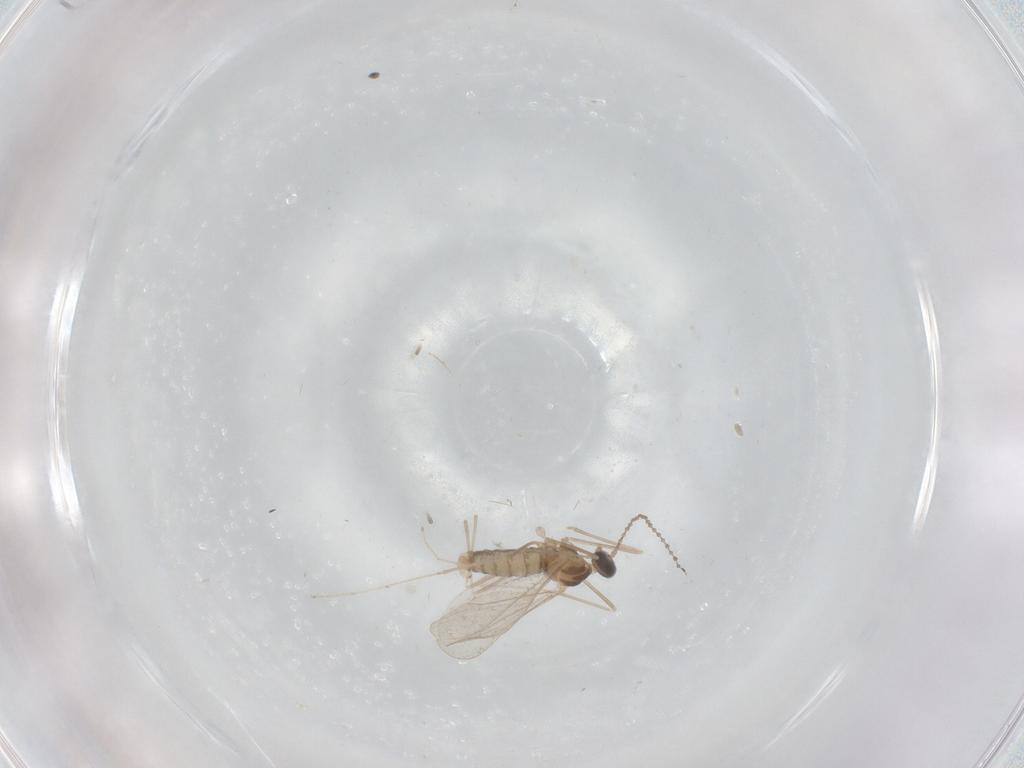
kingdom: Animalia
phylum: Arthropoda
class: Insecta
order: Diptera
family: Cecidomyiidae
